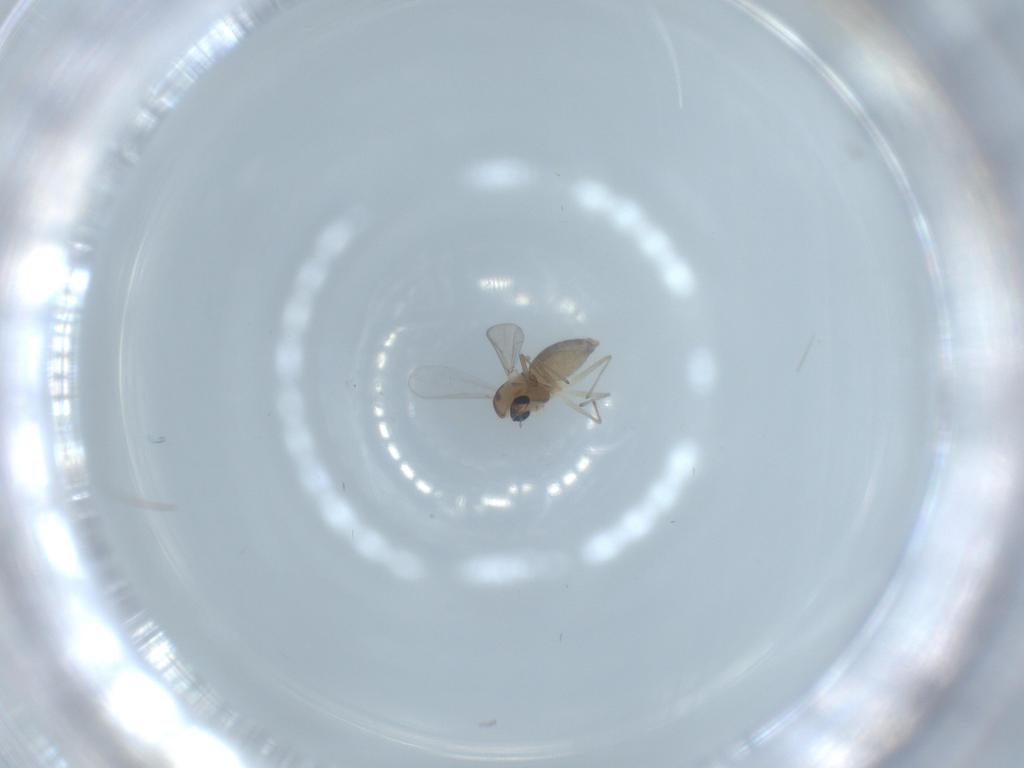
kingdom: Animalia
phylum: Arthropoda
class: Insecta
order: Diptera
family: Chironomidae
